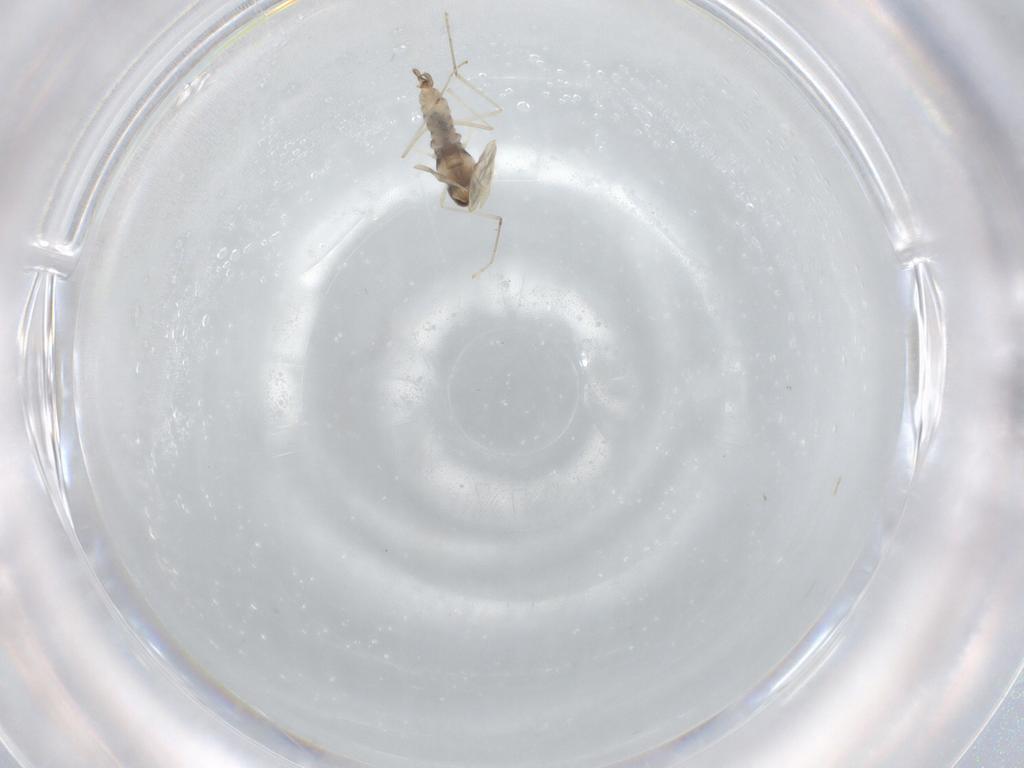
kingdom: Animalia
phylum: Arthropoda
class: Insecta
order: Diptera
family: Cecidomyiidae
